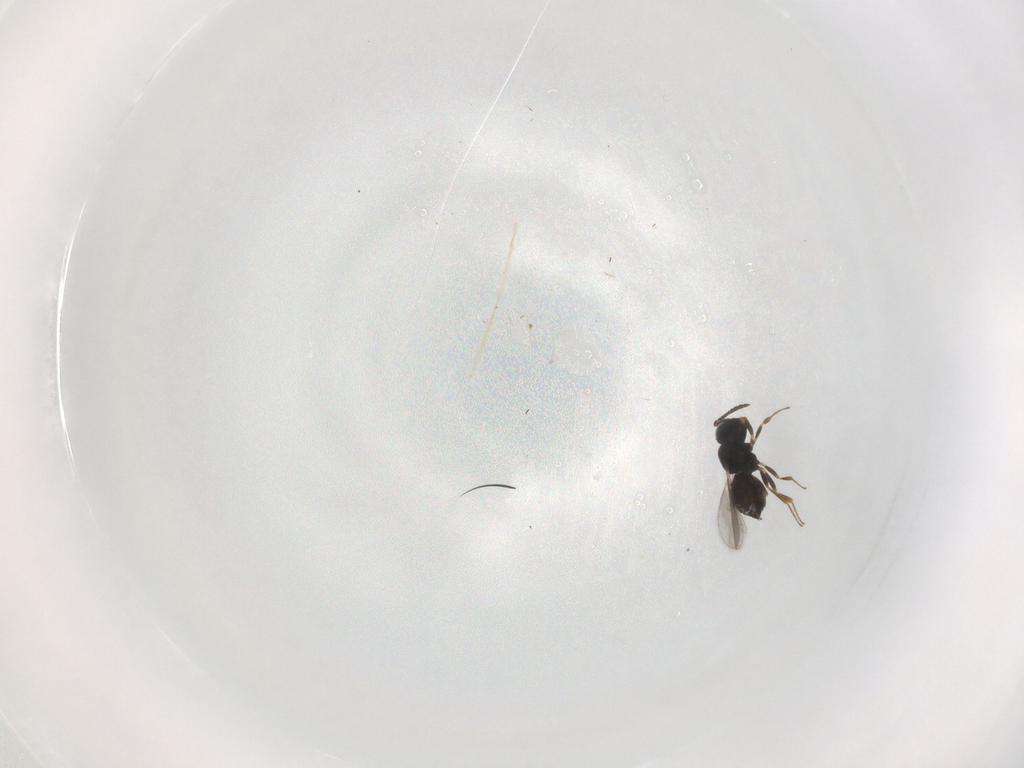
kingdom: Animalia
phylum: Arthropoda
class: Insecta
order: Hymenoptera
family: Scelionidae
